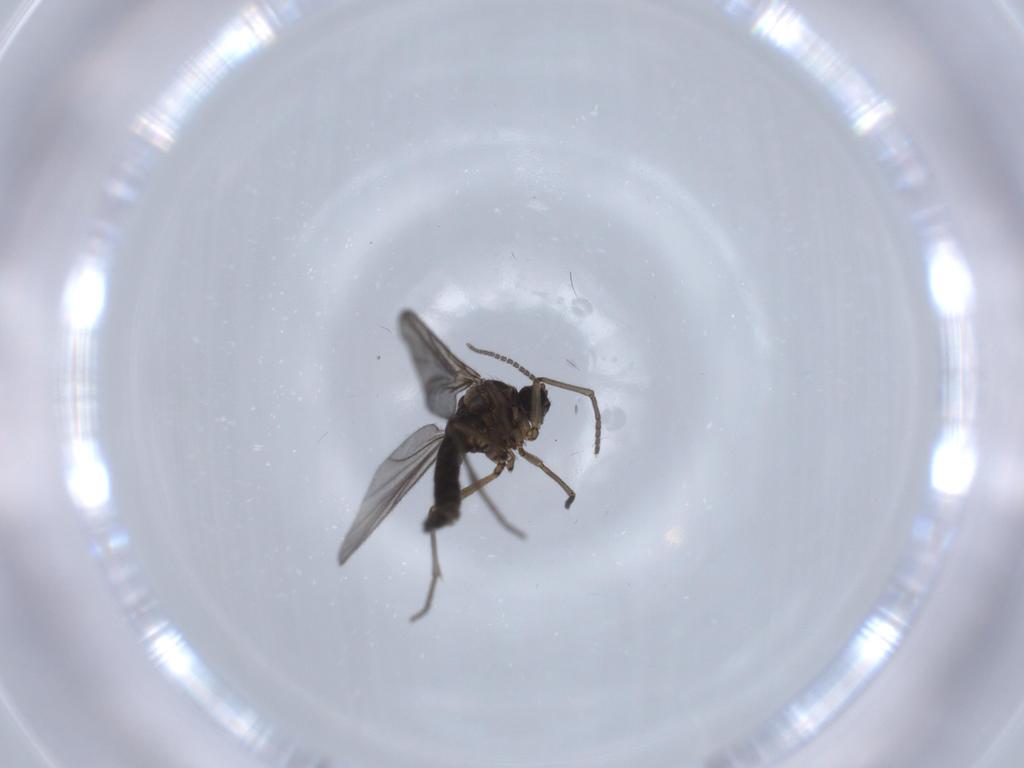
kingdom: Animalia
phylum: Arthropoda
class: Insecta
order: Diptera
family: Sciaridae
